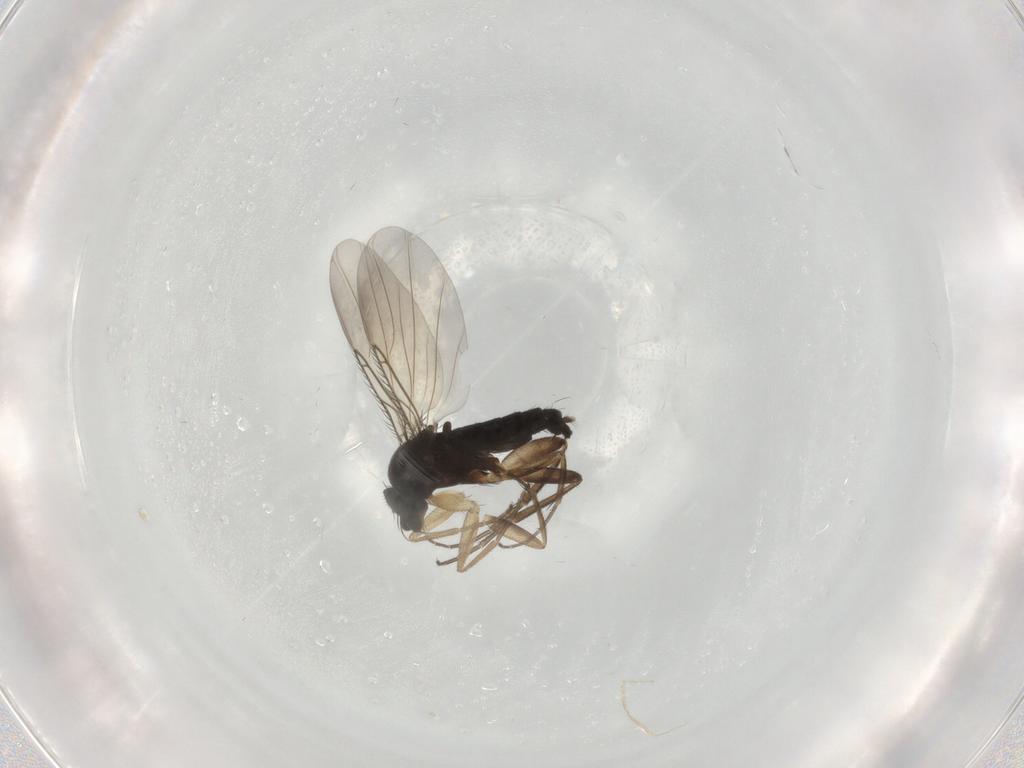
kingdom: Animalia
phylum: Arthropoda
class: Insecta
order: Diptera
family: Phoridae
